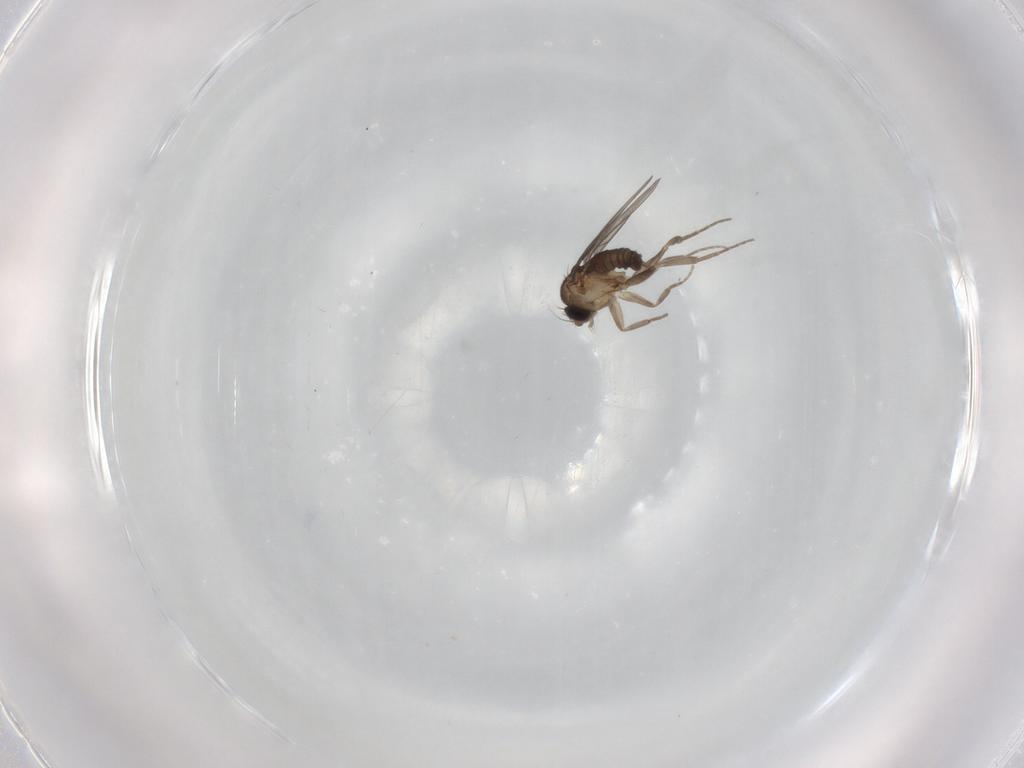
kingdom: Animalia
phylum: Arthropoda
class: Insecta
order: Diptera
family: Phoridae
